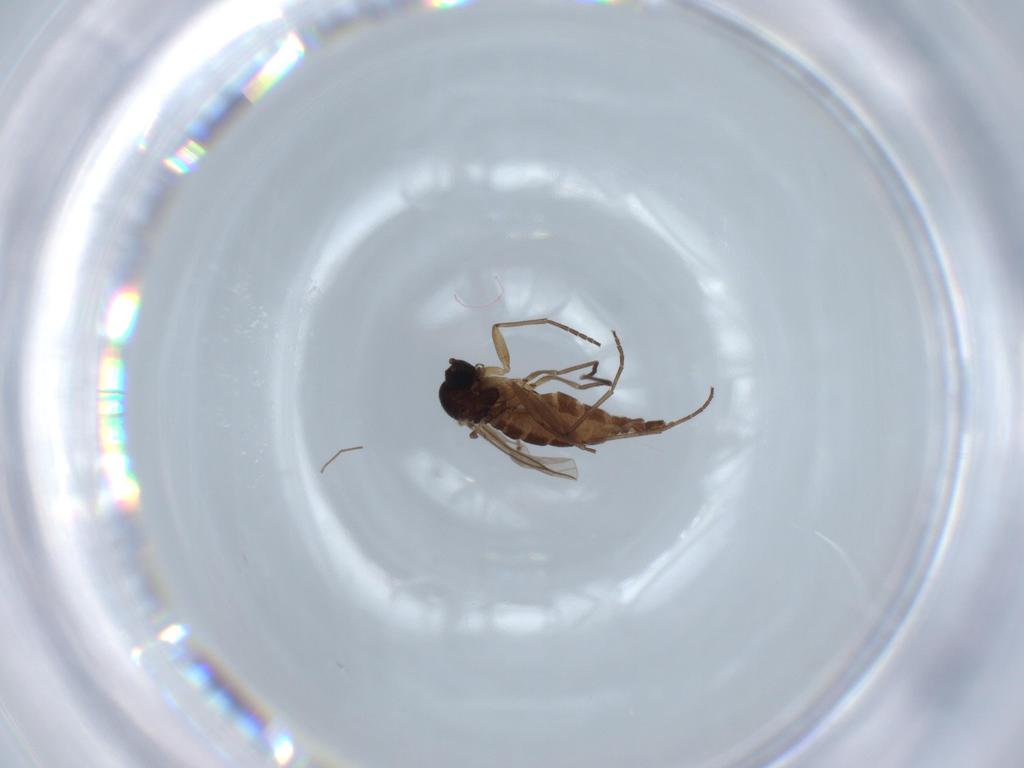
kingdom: Animalia
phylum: Arthropoda
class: Insecta
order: Diptera
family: Sciaridae
